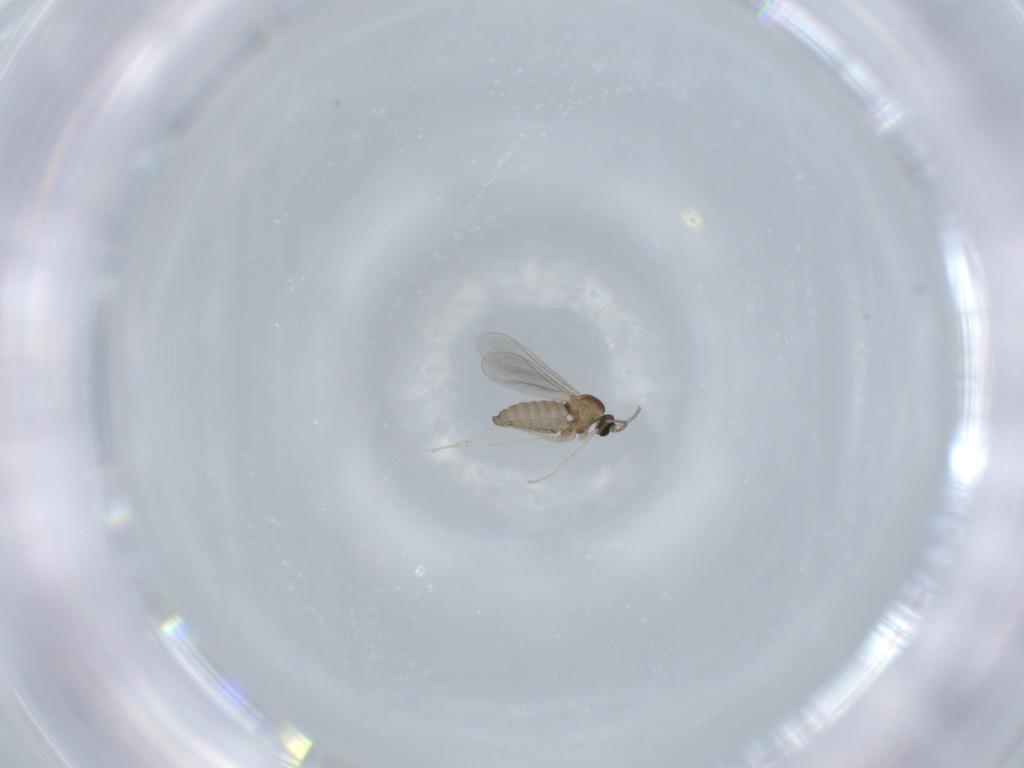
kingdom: Animalia
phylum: Arthropoda
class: Insecta
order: Diptera
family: Cecidomyiidae
